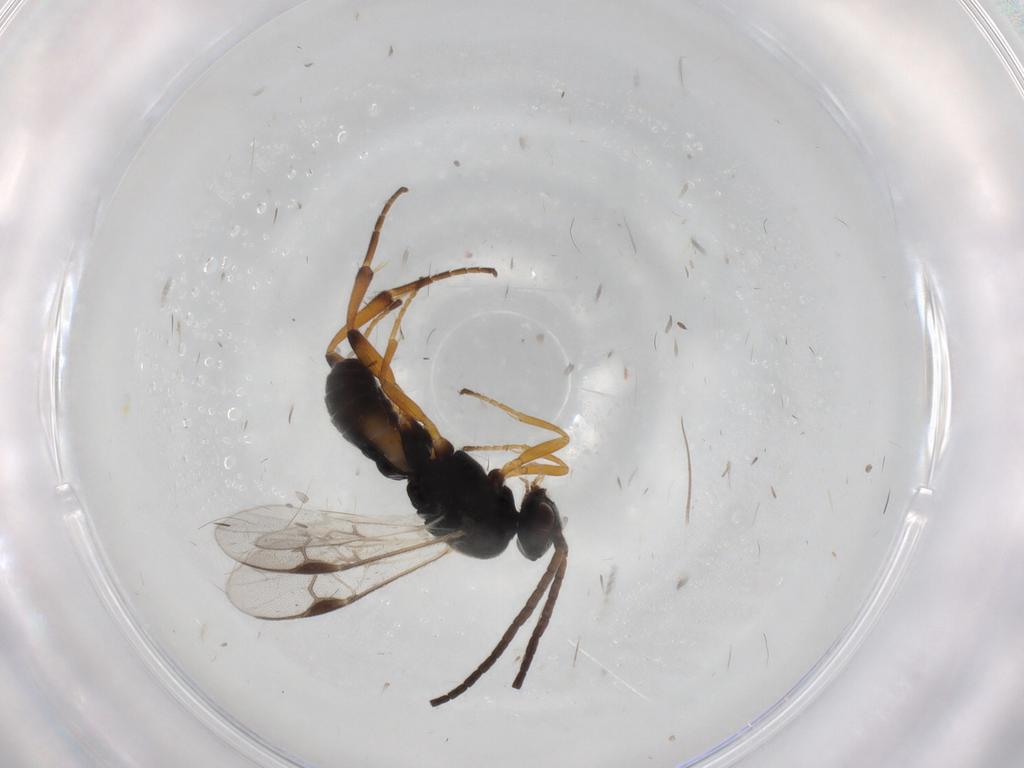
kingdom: Animalia
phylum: Arthropoda
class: Insecta
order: Hymenoptera
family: Braconidae
